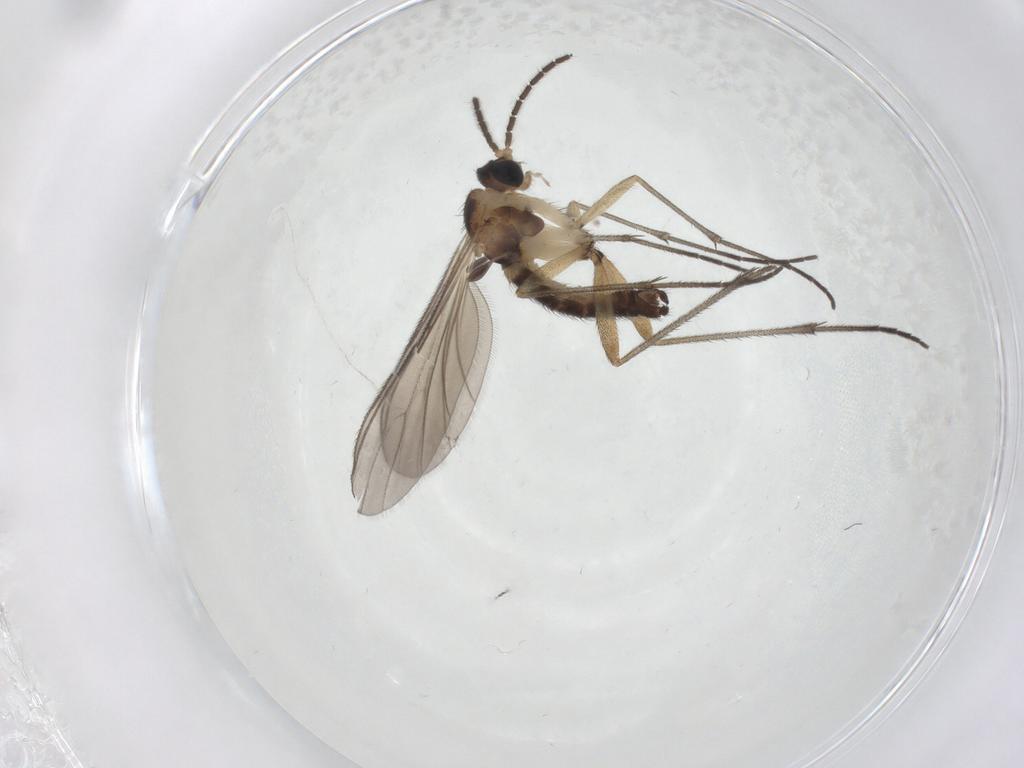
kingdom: Animalia
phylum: Arthropoda
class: Insecta
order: Diptera
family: Sciaridae
